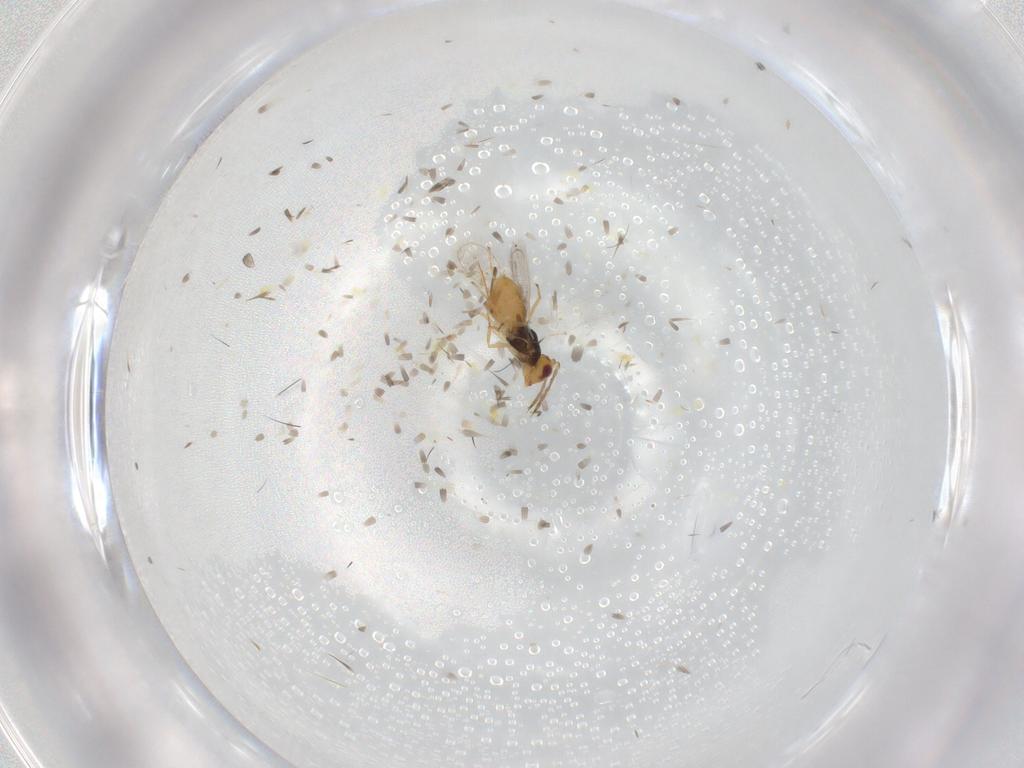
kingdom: Animalia
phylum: Arthropoda
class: Insecta
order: Hymenoptera
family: Eulophidae
